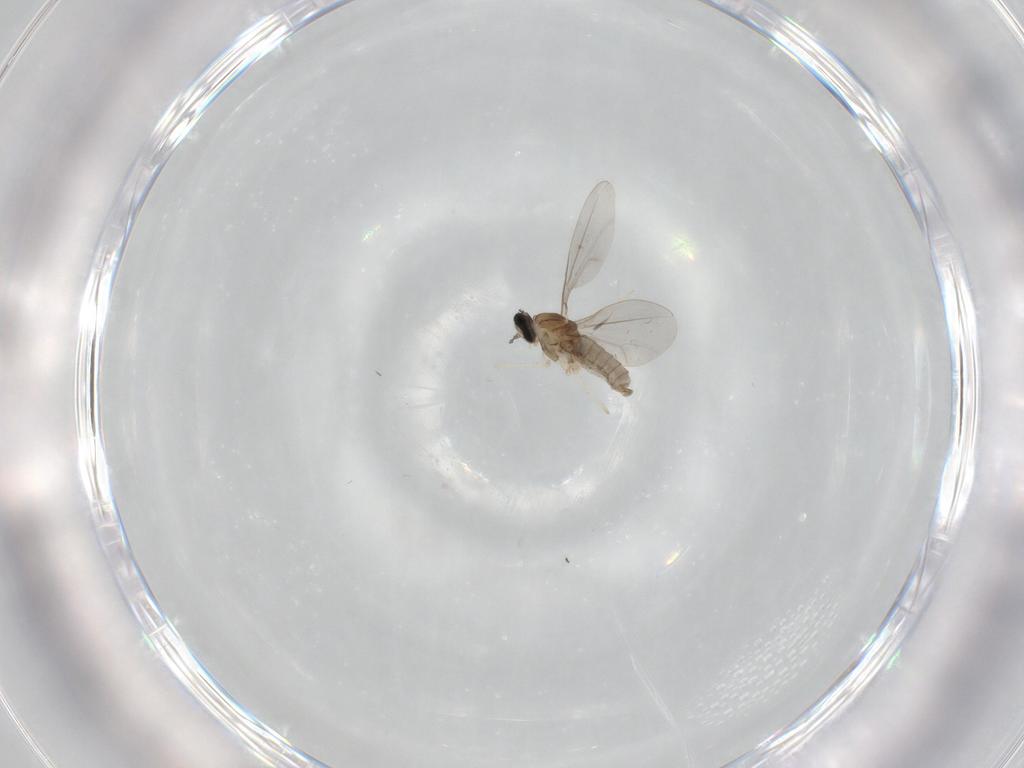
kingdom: Animalia
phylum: Arthropoda
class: Insecta
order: Diptera
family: Cecidomyiidae
